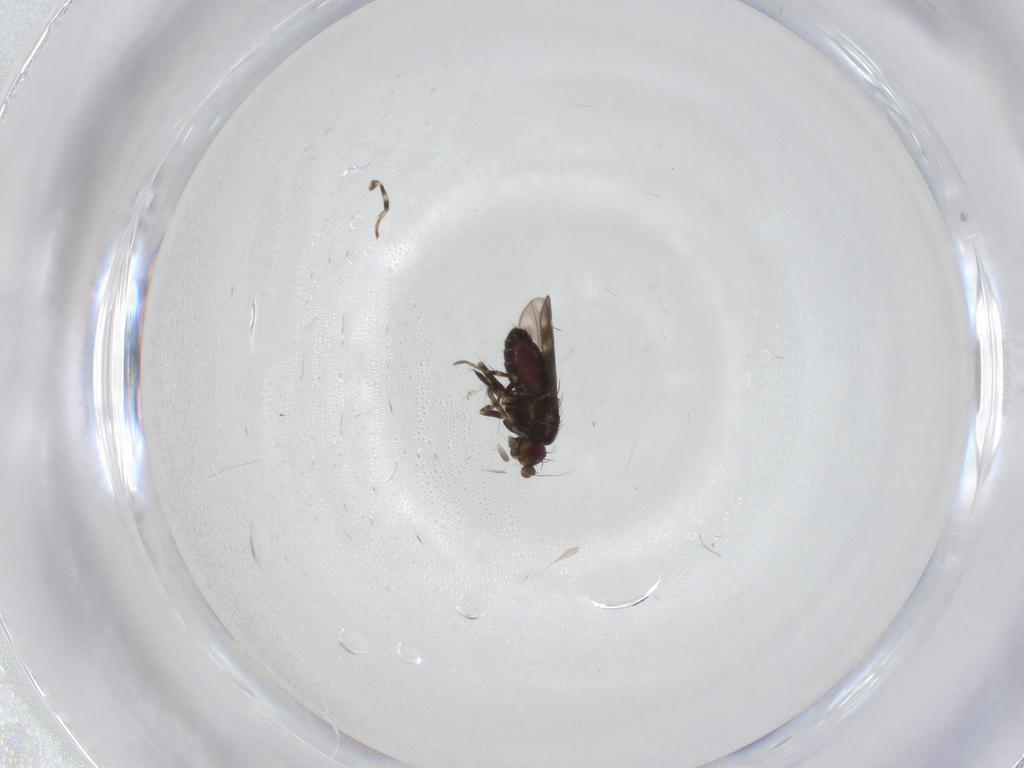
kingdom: Animalia
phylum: Arthropoda
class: Insecta
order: Diptera
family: Sphaeroceridae
